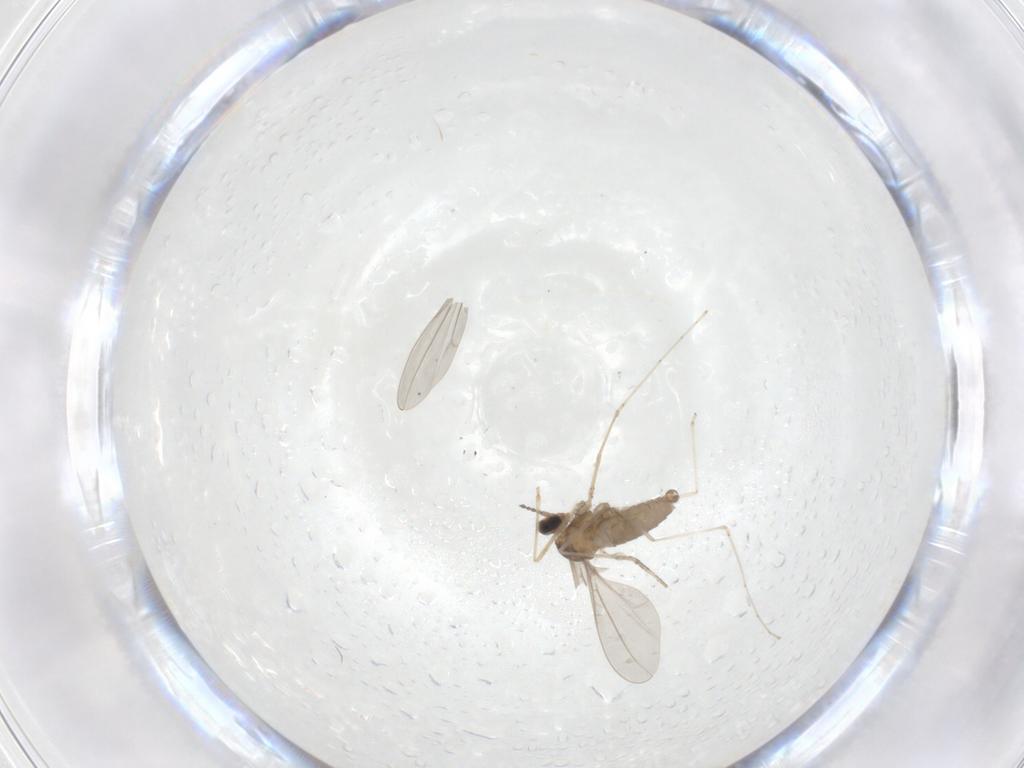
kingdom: Animalia
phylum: Arthropoda
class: Insecta
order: Diptera
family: Cecidomyiidae
